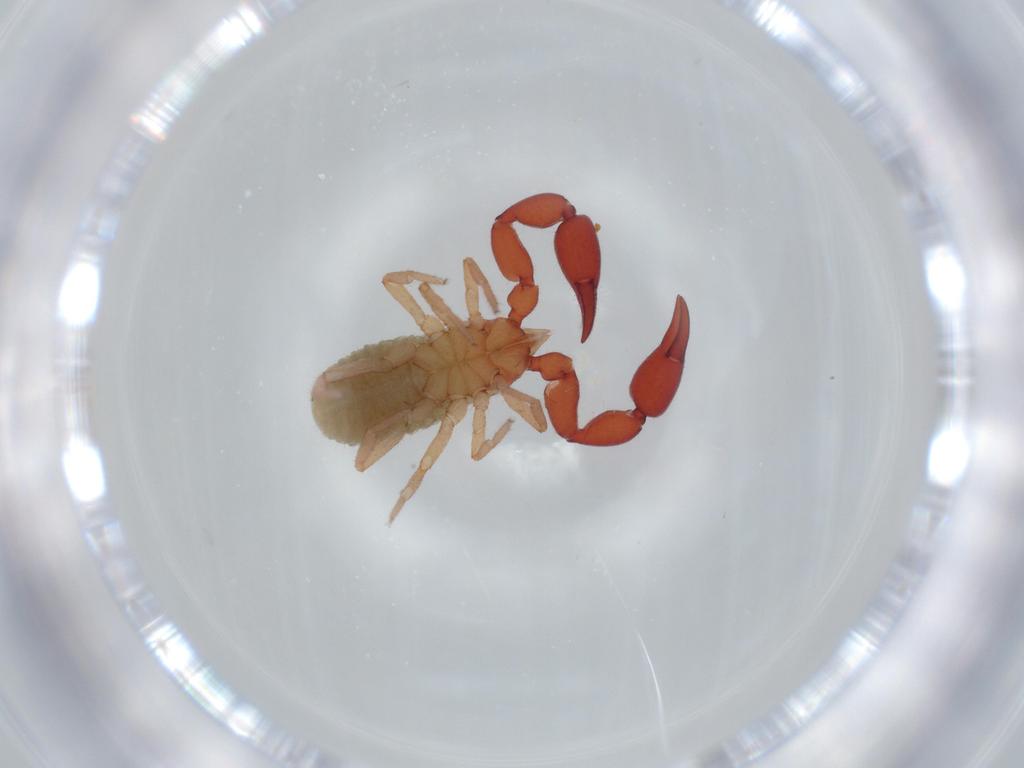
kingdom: Animalia
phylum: Arthropoda
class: Arachnida
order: Pseudoscorpiones
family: Chernetidae
